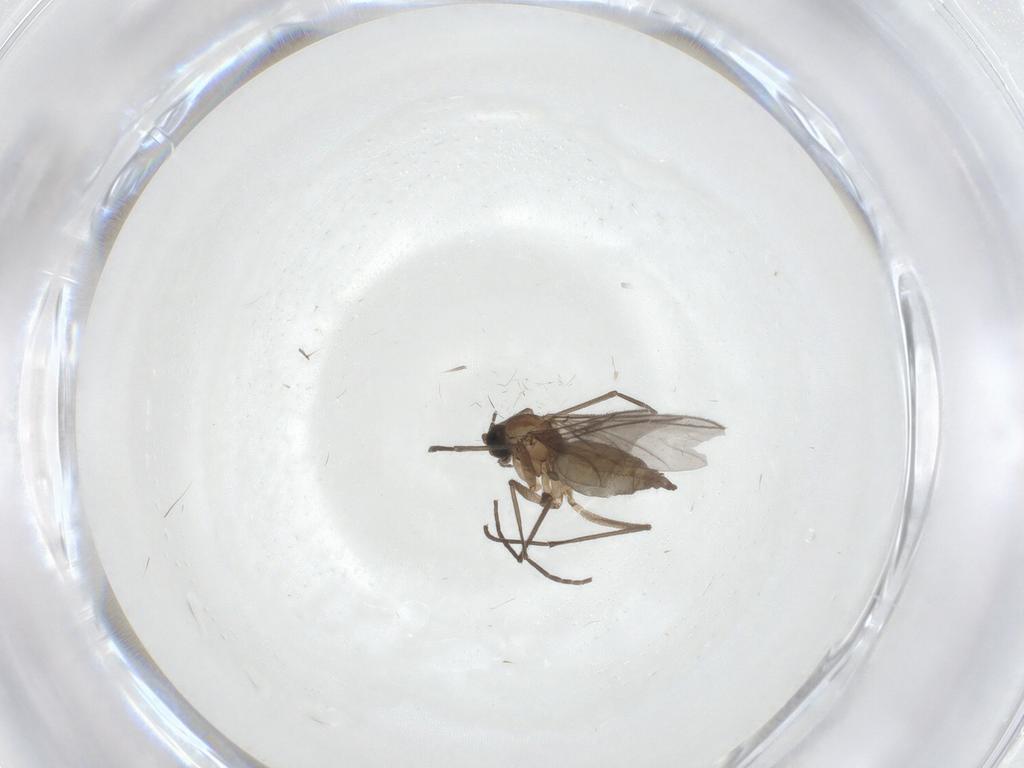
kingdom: Animalia
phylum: Arthropoda
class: Insecta
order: Diptera
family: Sciaridae
